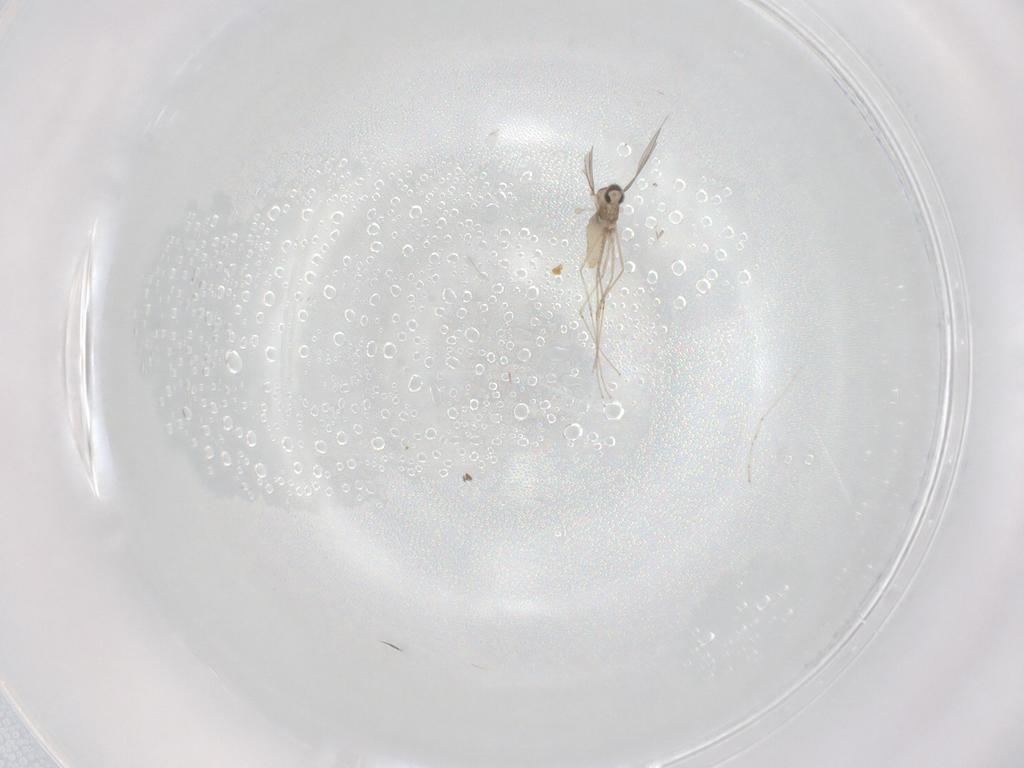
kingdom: Animalia
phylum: Arthropoda
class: Insecta
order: Diptera
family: Cecidomyiidae
